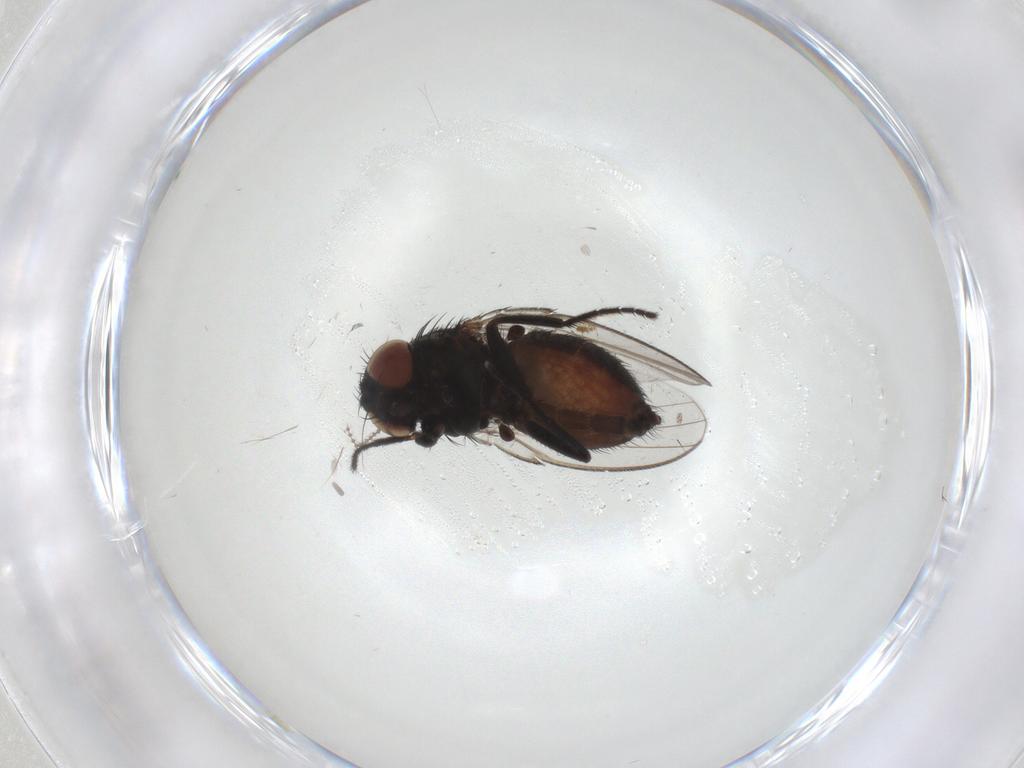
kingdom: Animalia
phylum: Arthropoda
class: Insecta
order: Diptera
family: Milichiidae
